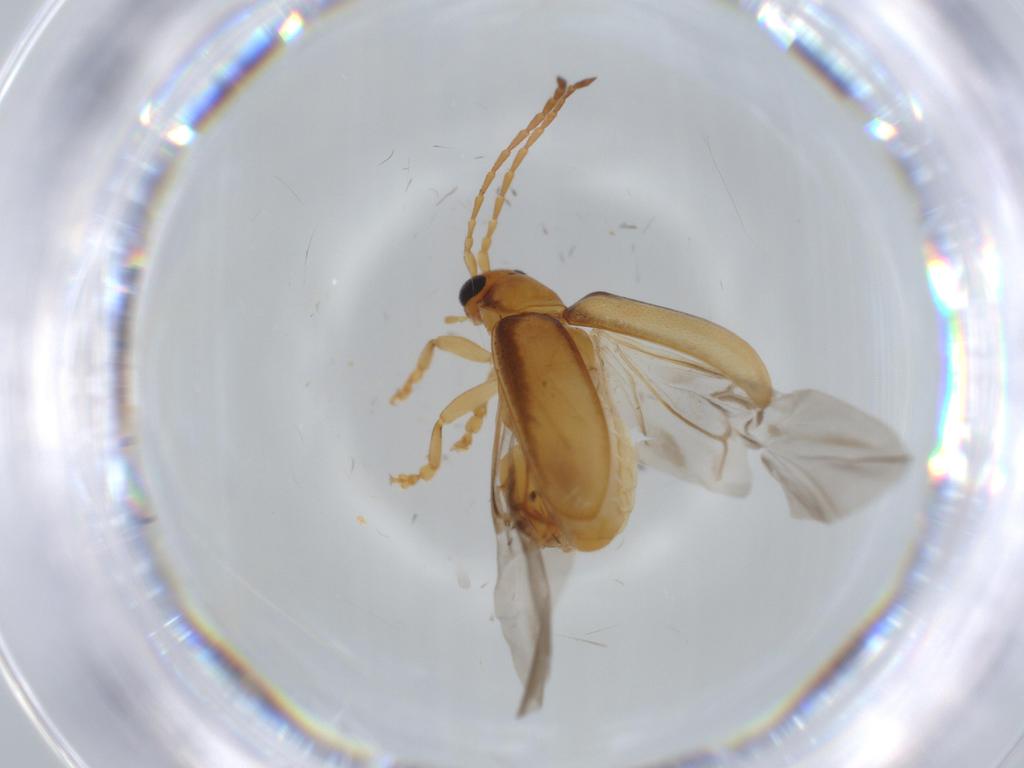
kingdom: Animalia
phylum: Arthropoda
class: Insecta
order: Coleoptera
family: Chrysomelidae
